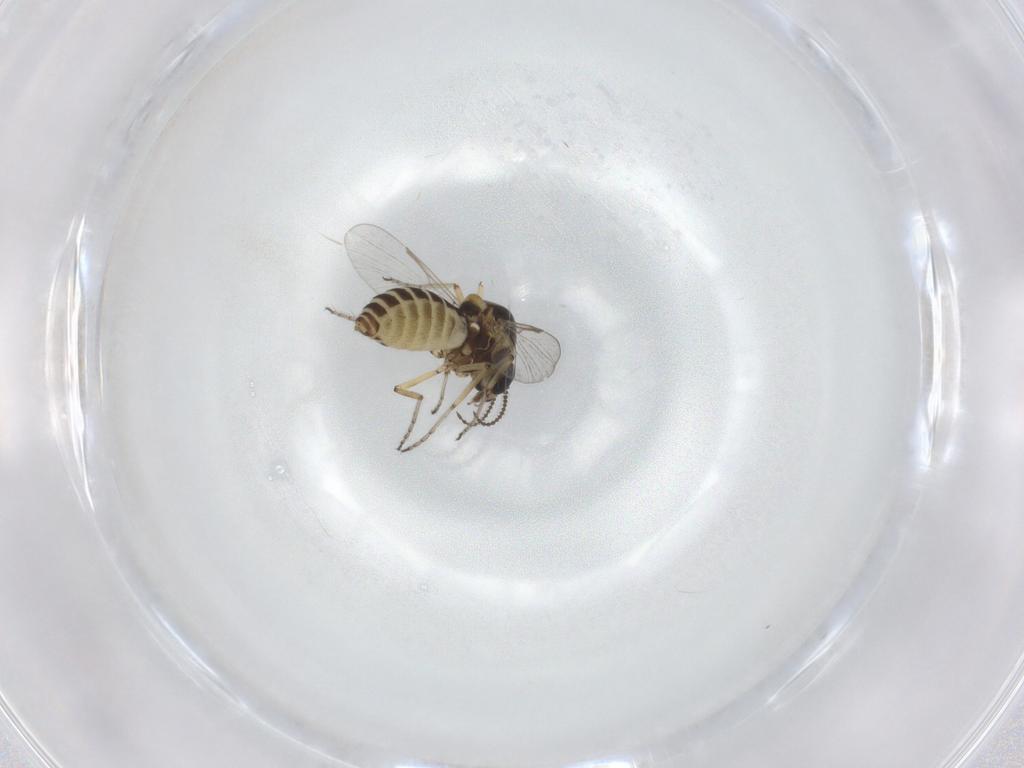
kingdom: Animalia
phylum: Arthropoda
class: Insecta
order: Diptera
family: Ceratopogonidae
